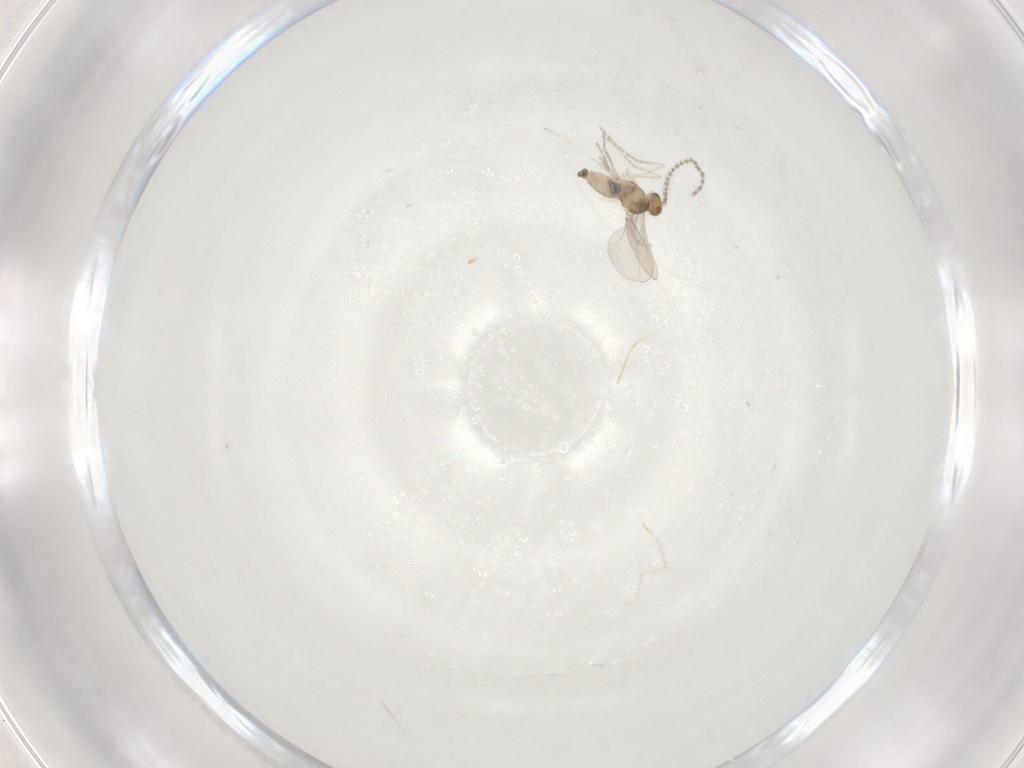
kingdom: Animalia
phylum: Arthropoda
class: Insecta
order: Diptera
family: Cecidomyiidae
